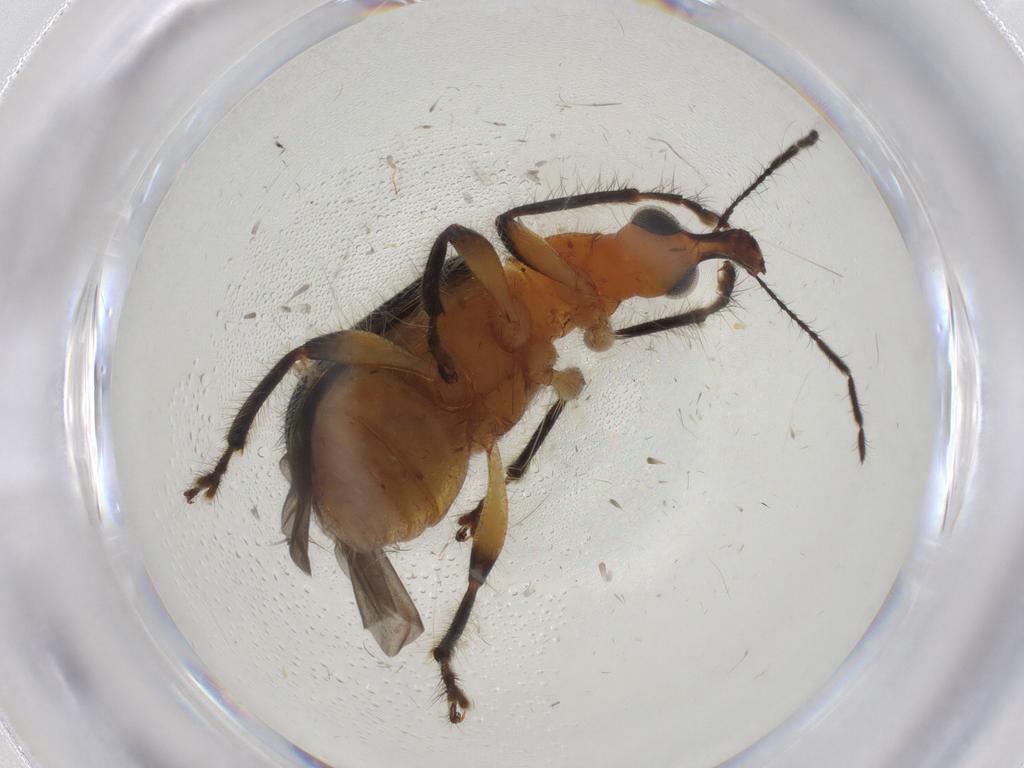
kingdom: Animalia
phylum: Arthropoda
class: Insecta
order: Coleoptera
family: Attelabidae
